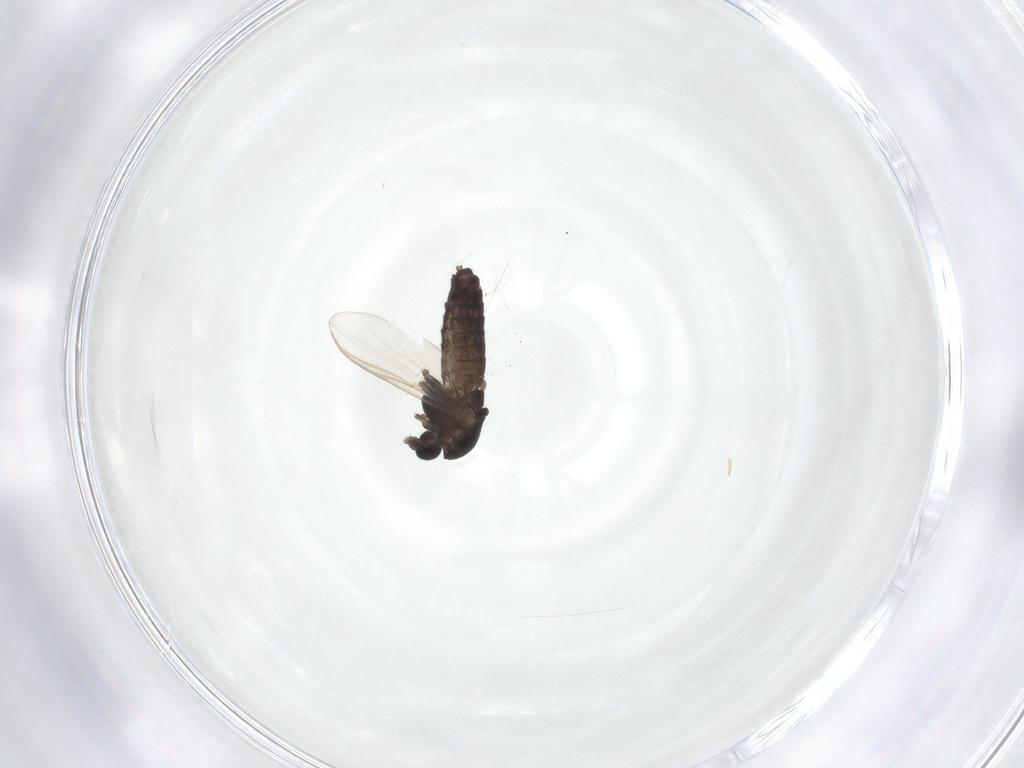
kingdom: Animalia
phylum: Arthropoda
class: Insecta
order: Diptera
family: Chironomidae
